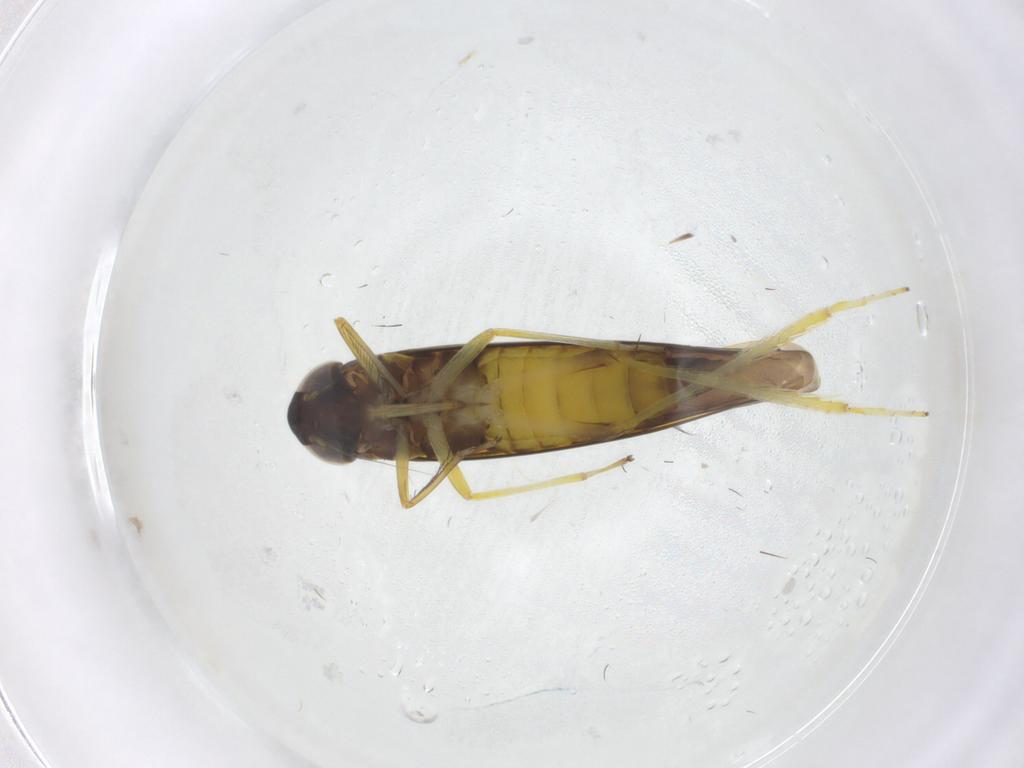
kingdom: Animalia
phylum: Arthropoda
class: Insecta
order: Hemiptera
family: Cicadellidae
